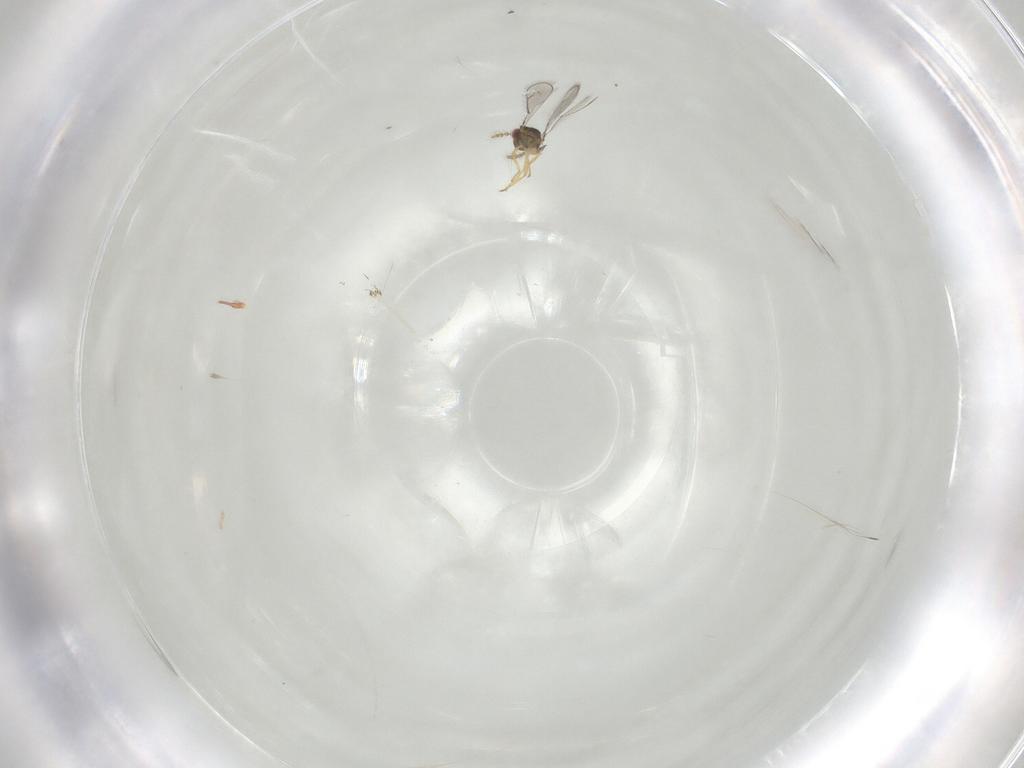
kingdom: Animalia
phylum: Arthropoda
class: Insecta
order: Hymenoptera
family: Eulophidae
